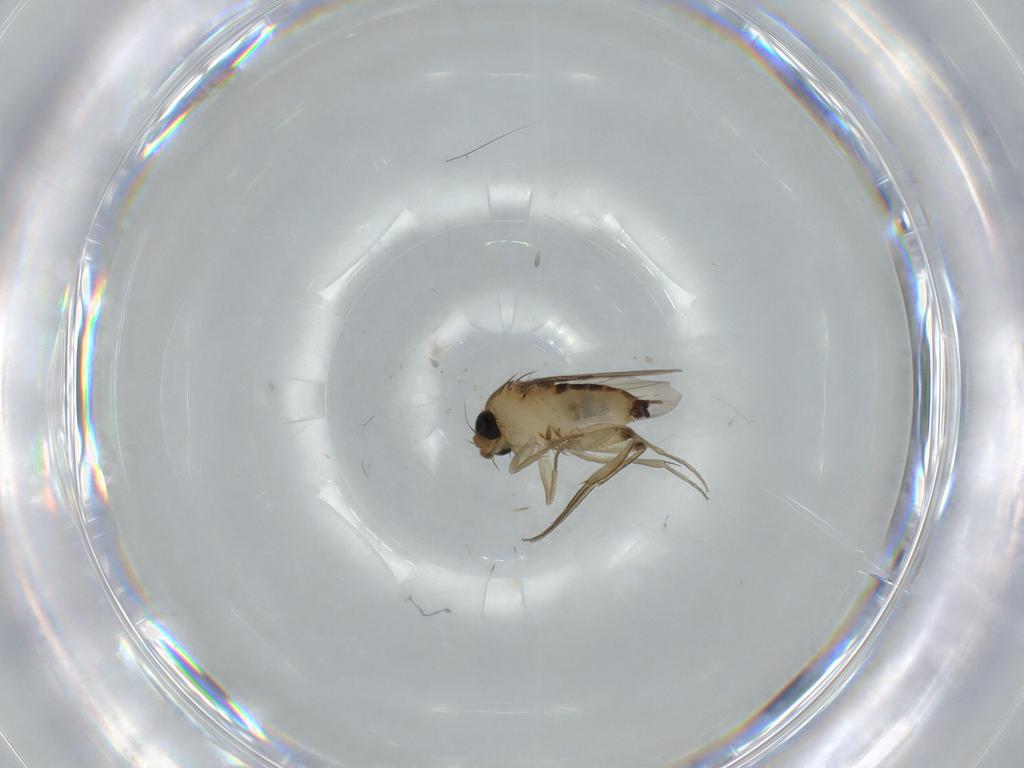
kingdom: Animalia
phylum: Arthropoda
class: Insecta
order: Diptera
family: Phoridae
